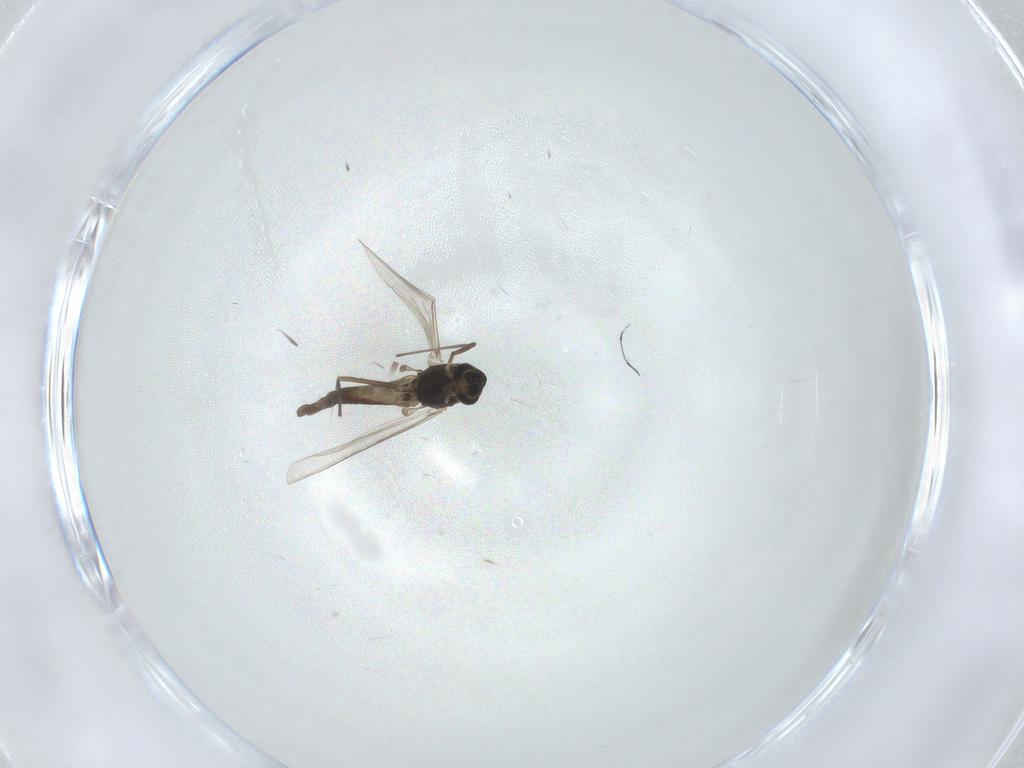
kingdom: Animalia
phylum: Arthropoda
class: Insecta
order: Diptera
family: Chironomidae
